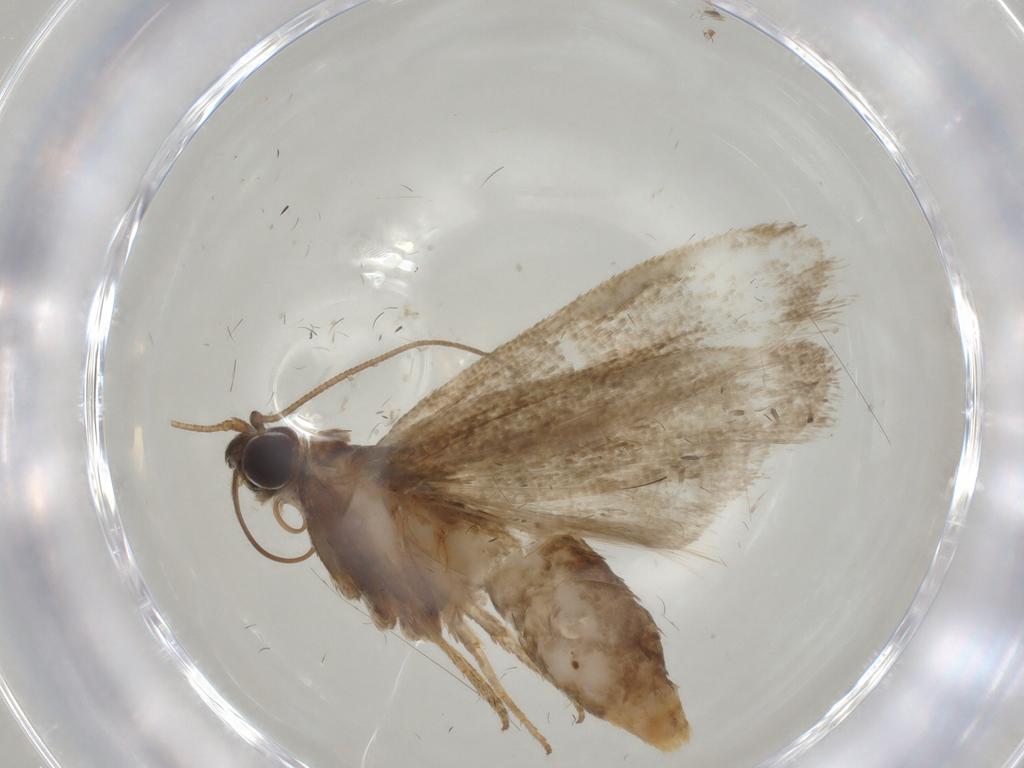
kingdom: Animalia
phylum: Arthropoda
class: Insecta
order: Lepidoptera
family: Coleophoridae
